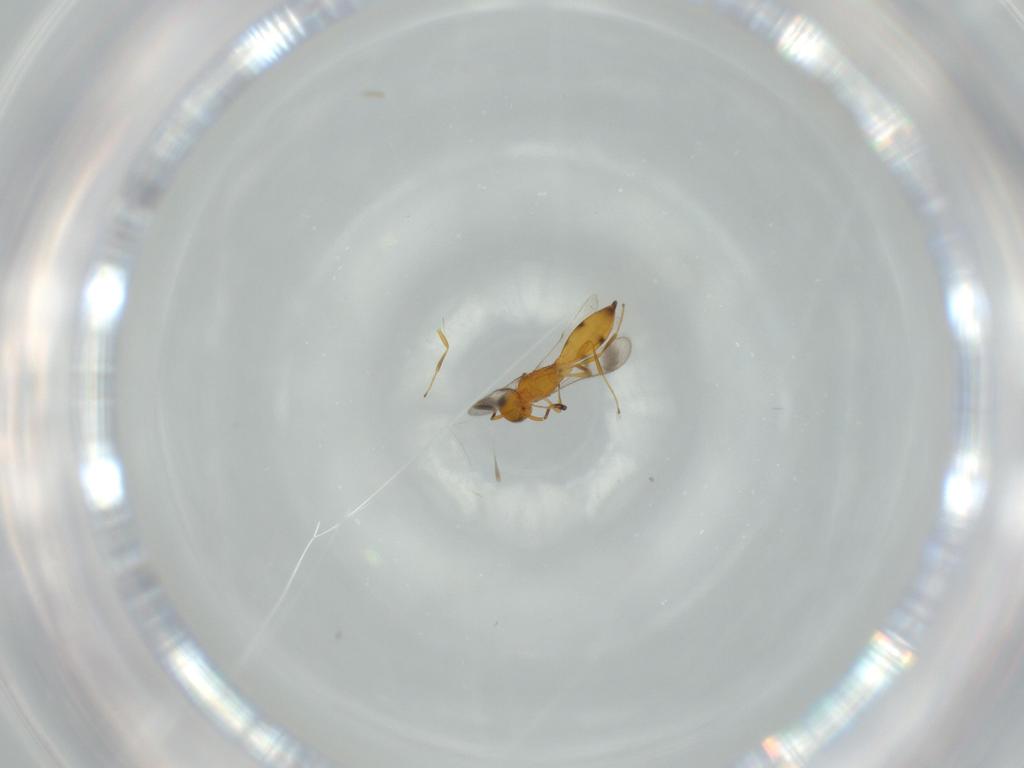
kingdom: Animalia
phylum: Arthropoda
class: Insecta
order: Hymenoptera
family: Scelionidae
